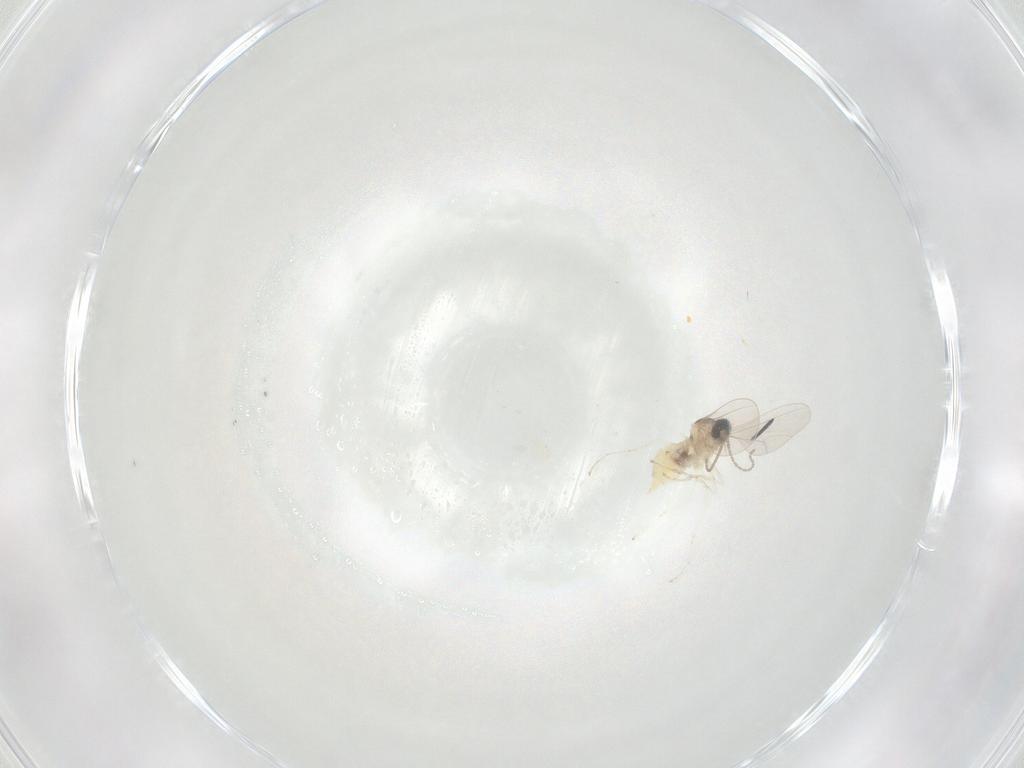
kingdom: Animalia
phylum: Arthropoda
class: Insecta
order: Diptera
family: Cecidomyiidae
